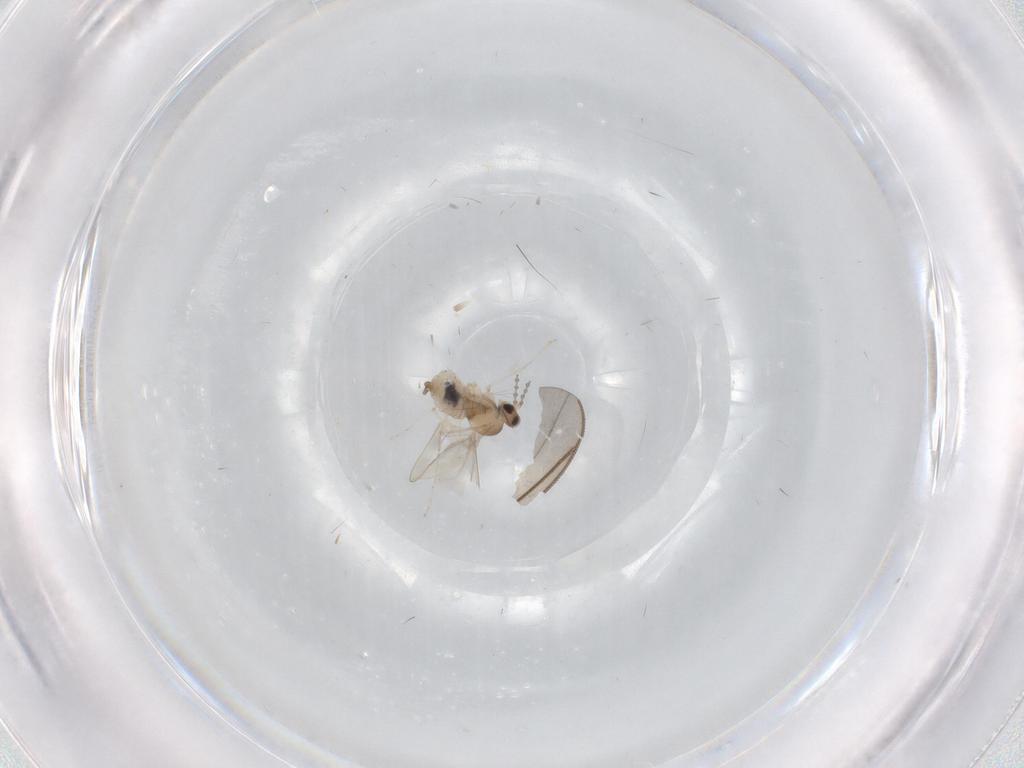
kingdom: Animalia
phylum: Arthropoda
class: Insecta
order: Diptera
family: Cecidomyiidae
